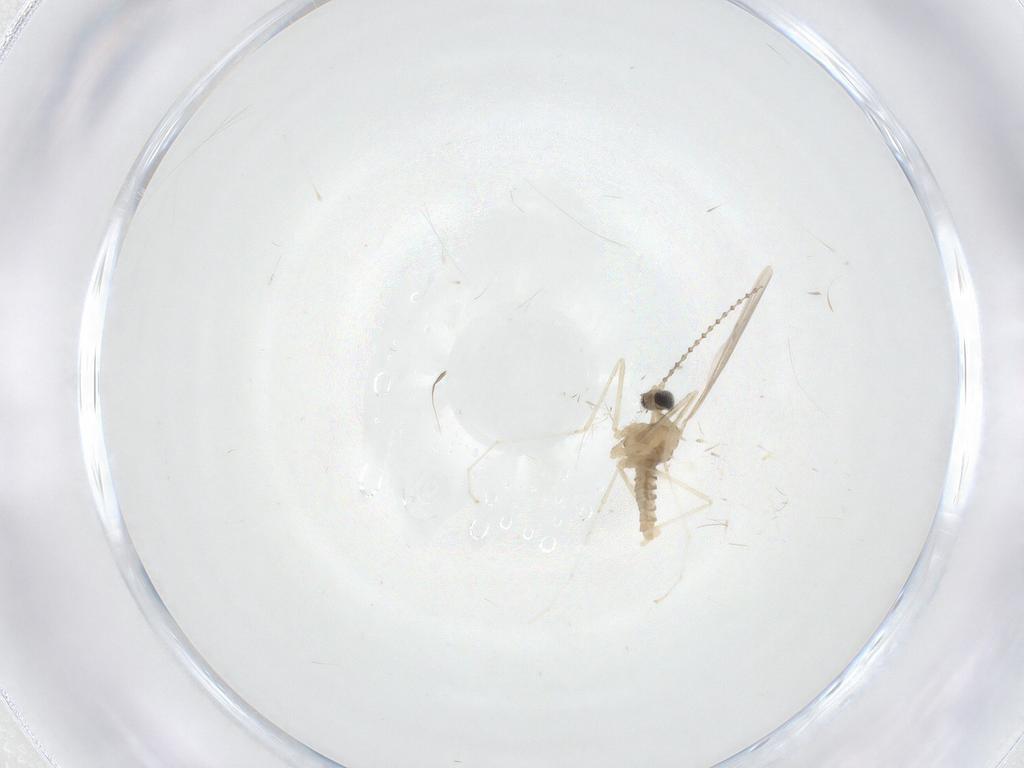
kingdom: Animalia
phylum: Arthropoda
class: Insecta
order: Diptera
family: Cecidomyiidae
